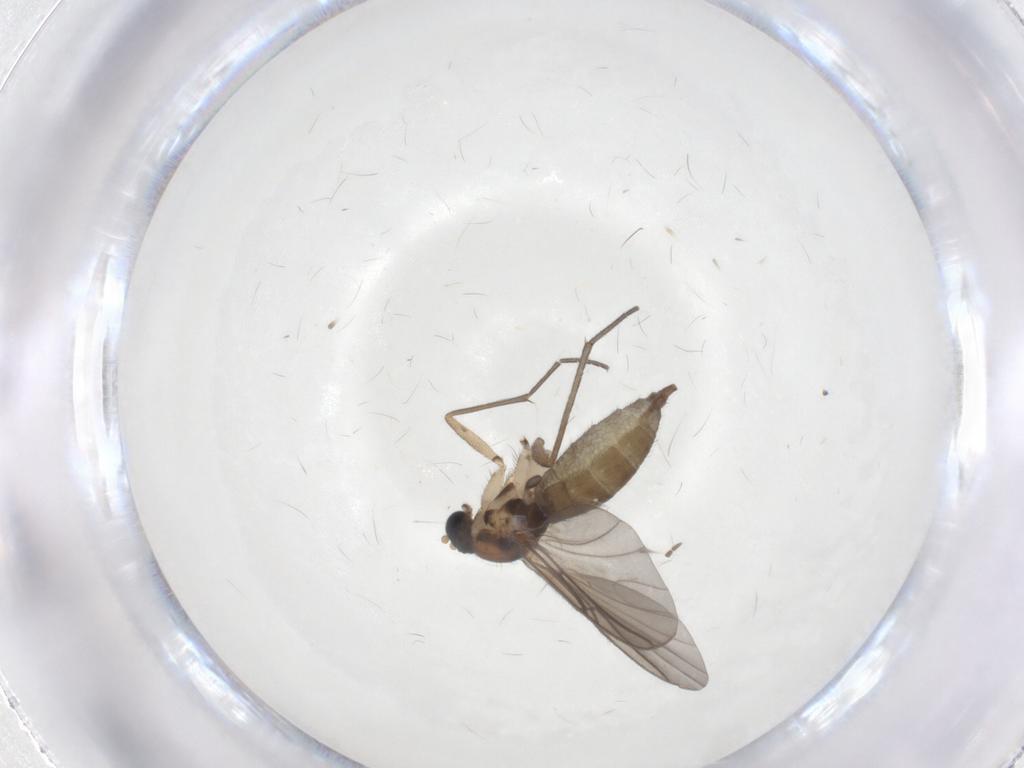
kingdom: Animalia
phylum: Arthropoda
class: Insecta
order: Diptera
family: Sciaridae
